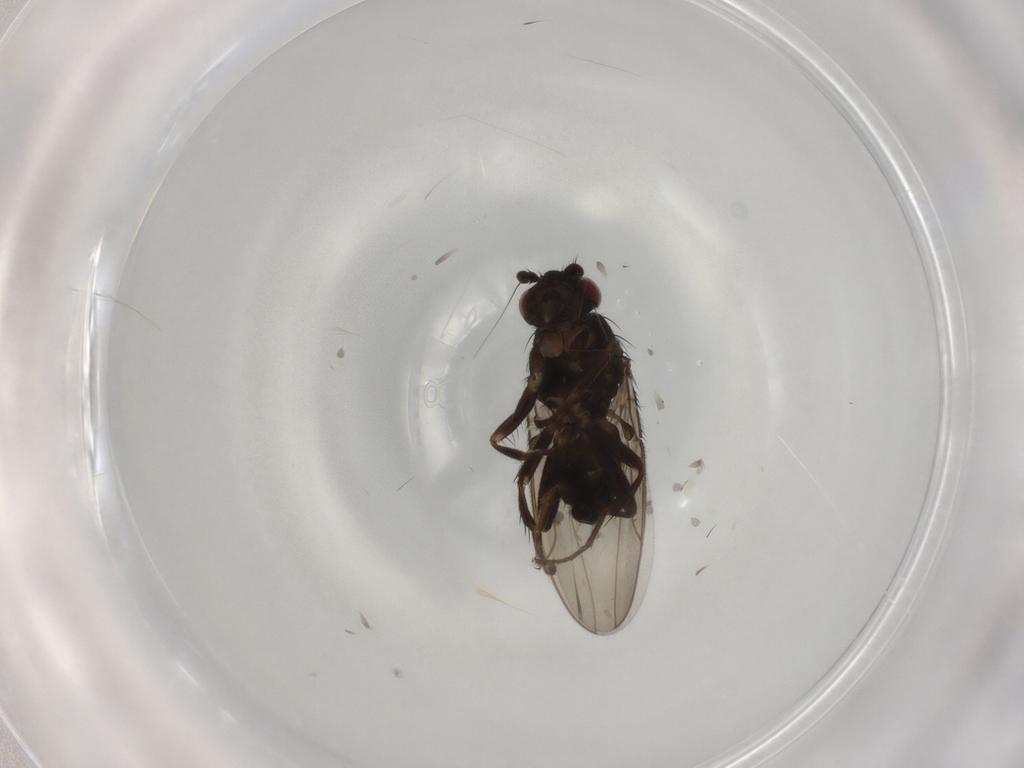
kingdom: Animalia
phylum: Arthropoda
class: Insecta
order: Diptera
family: Sphaeroceridae
